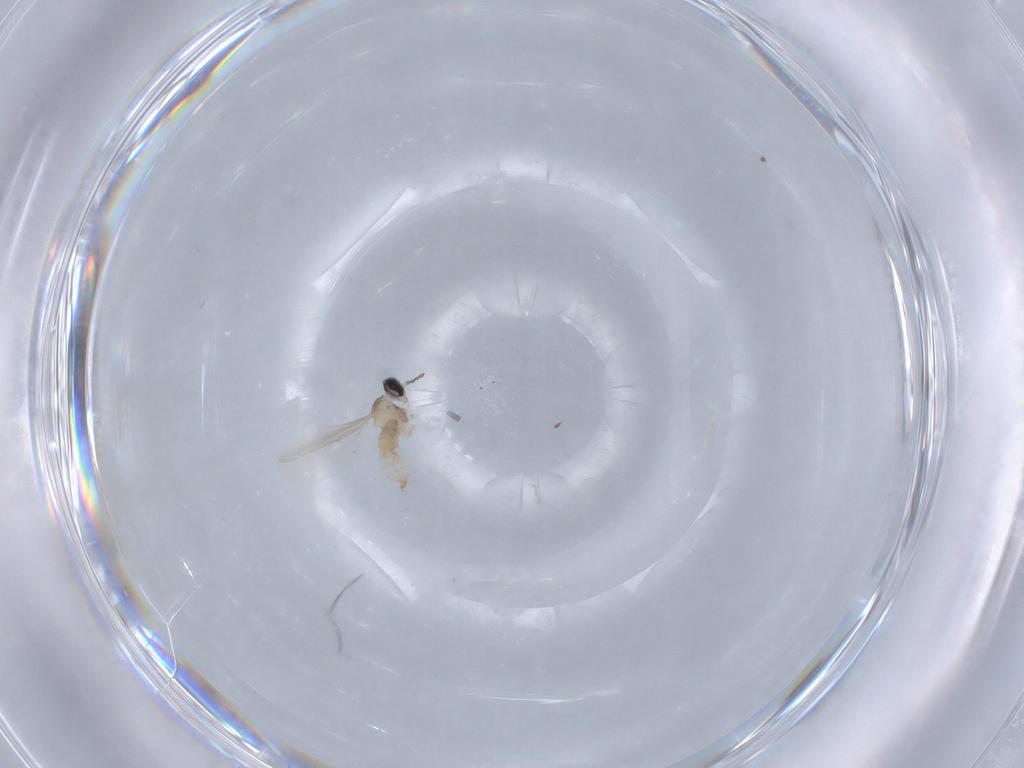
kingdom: Animalia
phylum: Arthropoda
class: Insecta
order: Diptera
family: Cecidomyiidae
